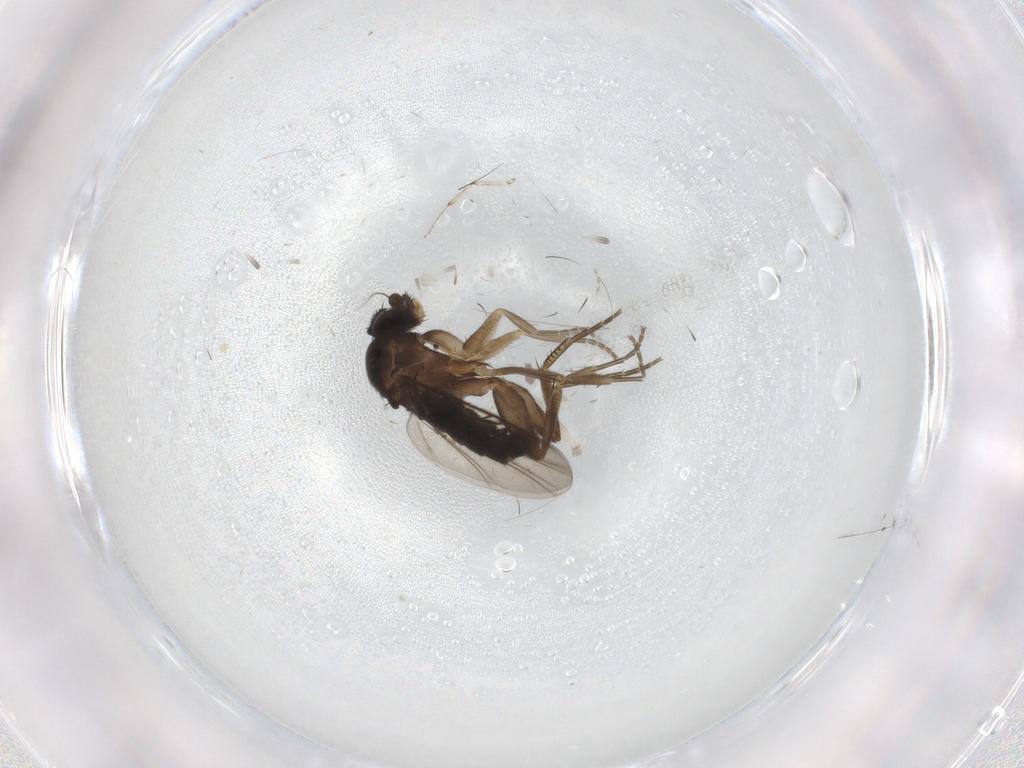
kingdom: Animalia
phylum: Arthropoda
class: Insecta
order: Diptera
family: Phoridae
